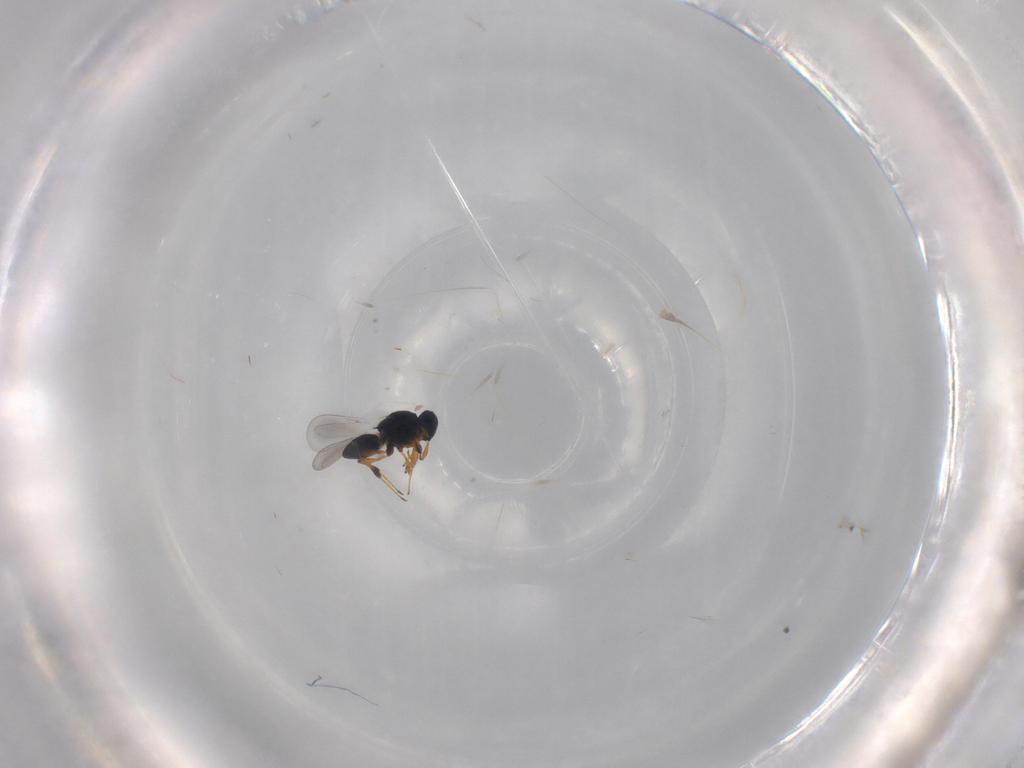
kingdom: Animalia
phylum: Arthropoda
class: Insecta
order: Hymenoptera
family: Platygastridae
